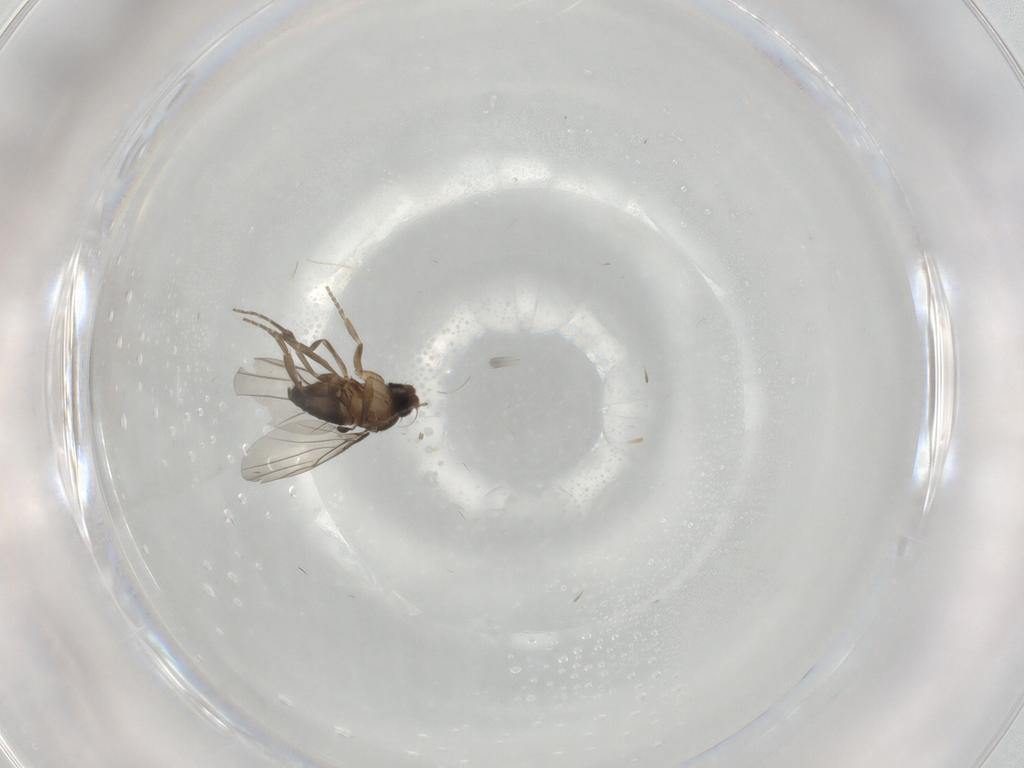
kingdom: Animalia
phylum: Arthropoda
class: Insecta
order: Diptera
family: Phoridae
